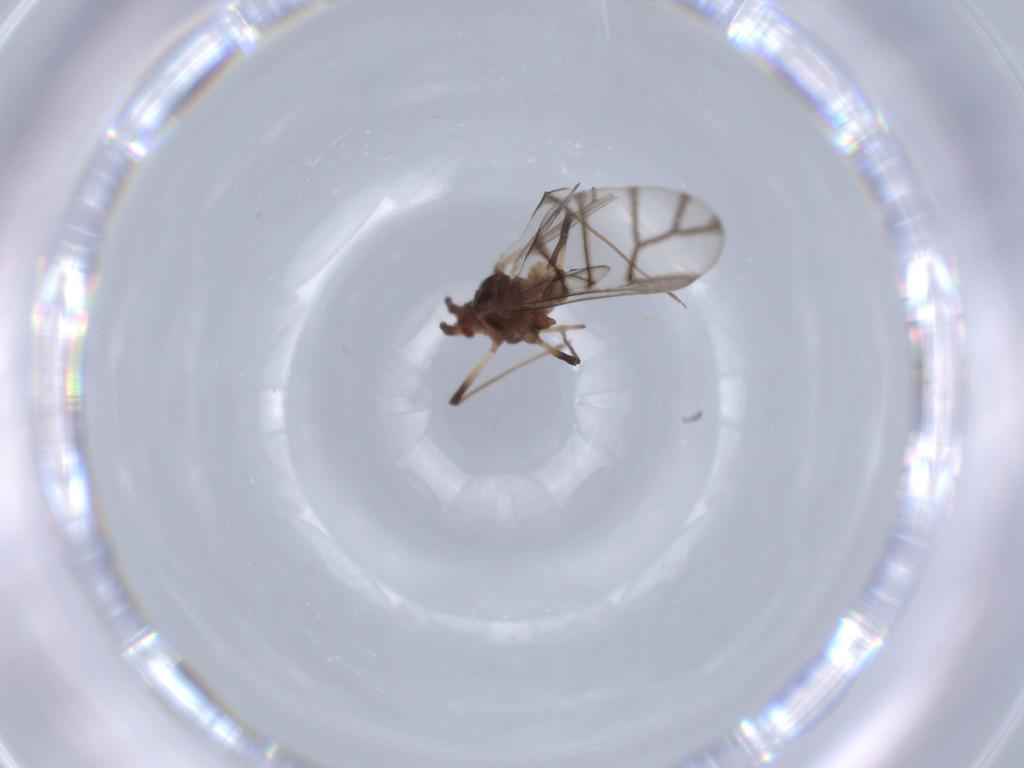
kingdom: Animalia
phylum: Arthropoda
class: Insecta
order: Hemiptera
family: Aphididae
